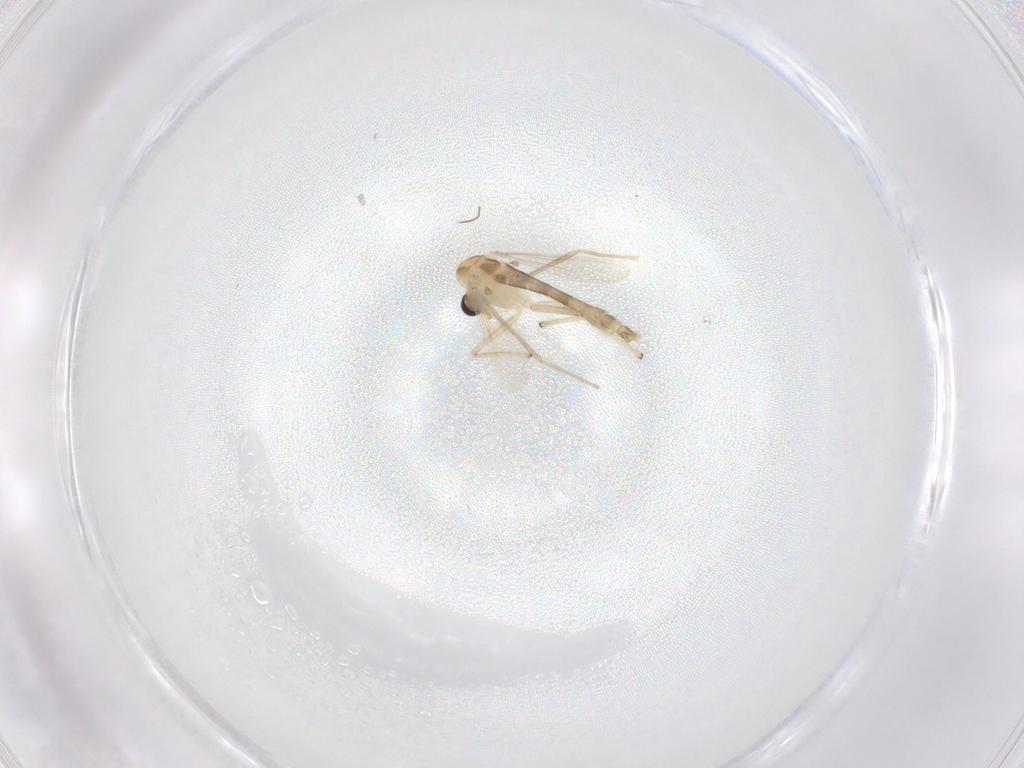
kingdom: Animalia
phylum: Arthropoda
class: Insecta
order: Diptera
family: Chironomidae
